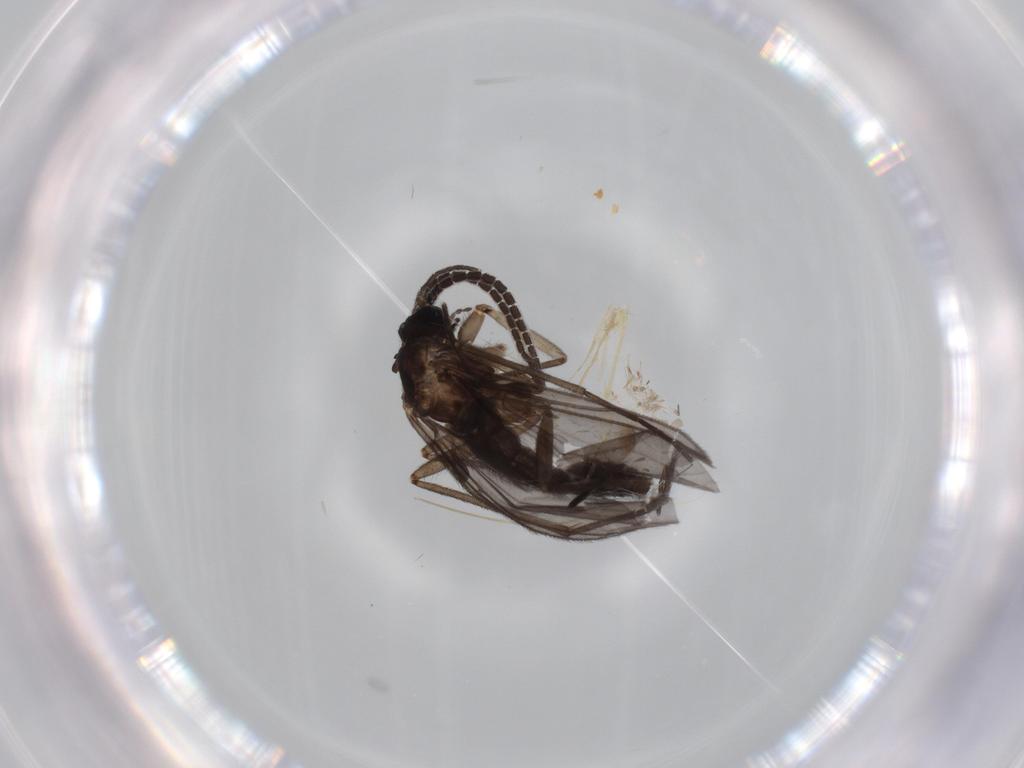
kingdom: Animalia
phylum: Arthropoda
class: Insecta
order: Diptera
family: Sciaridae
